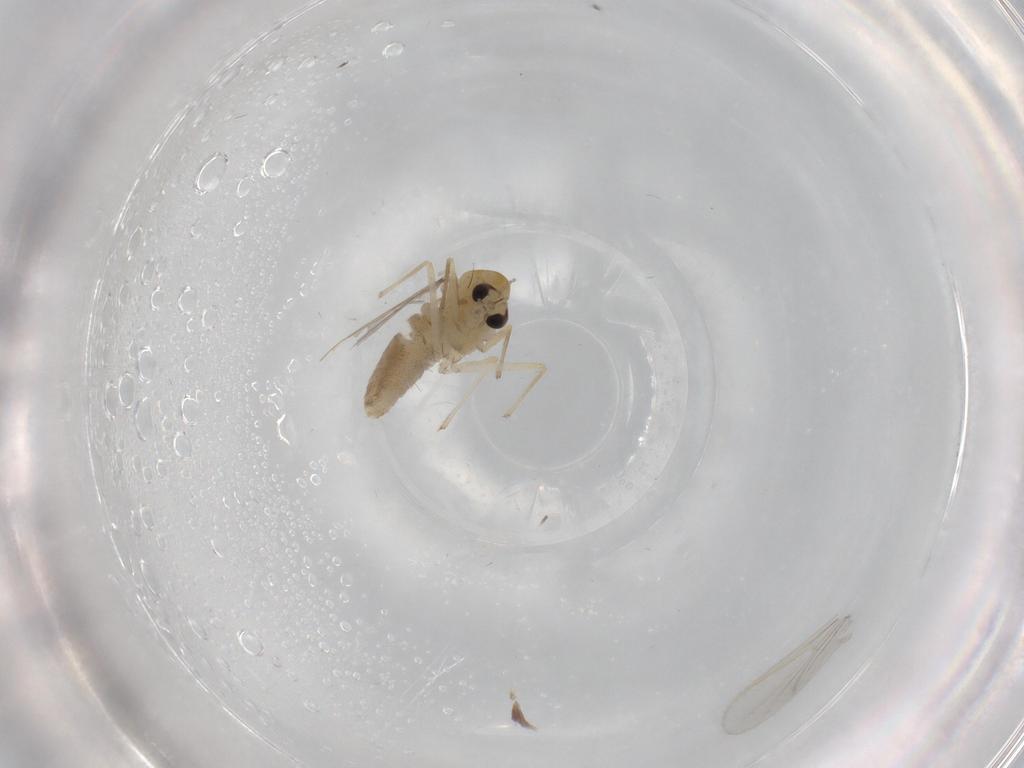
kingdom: Animalia
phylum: Arthropoda
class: Insecta
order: Diptera
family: Chironomidae
